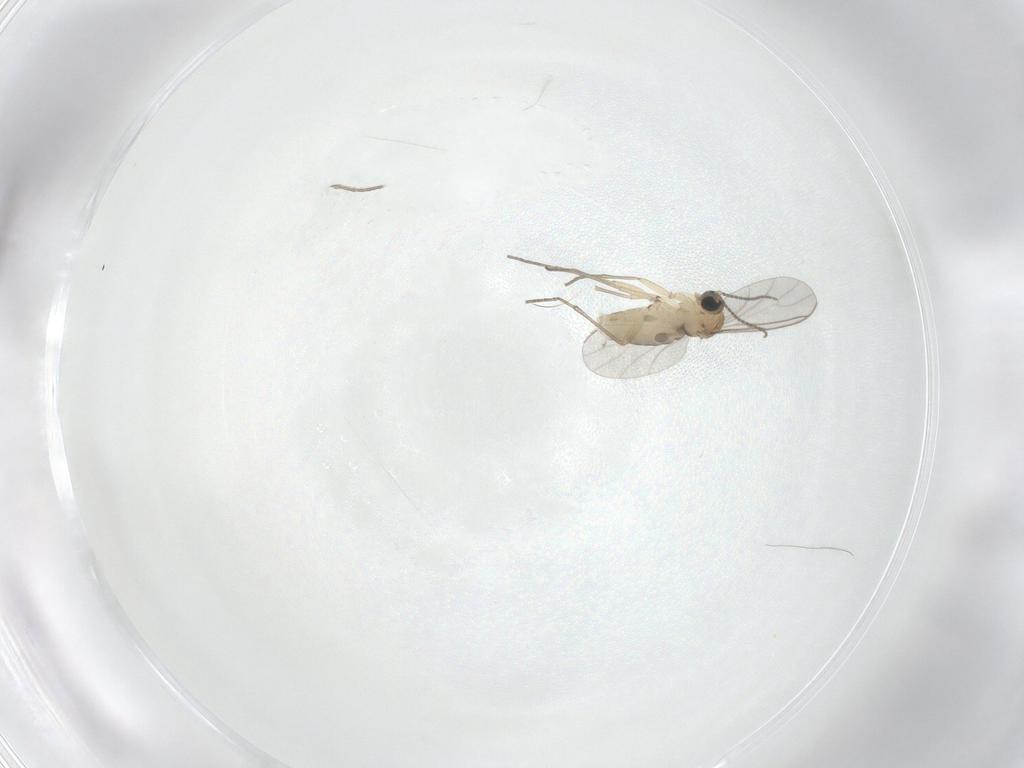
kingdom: Animalia
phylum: Arthropoda
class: Insecta
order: Diptera
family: Sciaridae
